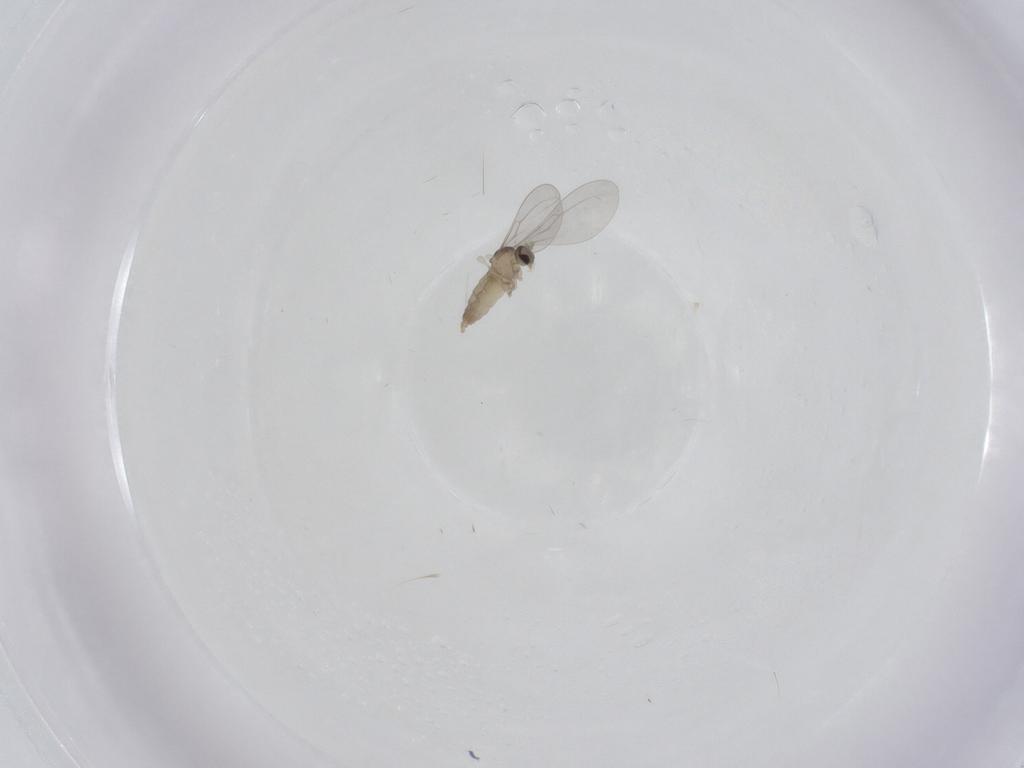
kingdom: Animalia
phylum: Arthropoda
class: Insecta
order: Diptera
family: Cecidomyiidae
